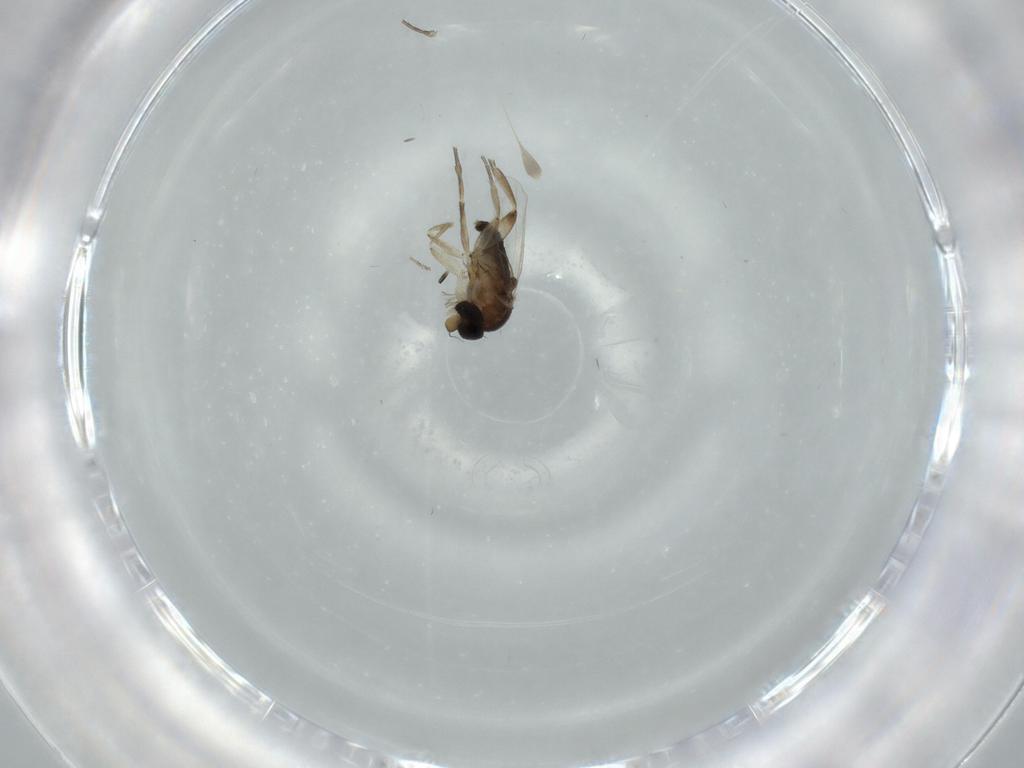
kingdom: Animalia
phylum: Arthropoda
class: Insecta
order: Diptera
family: Phoridae
